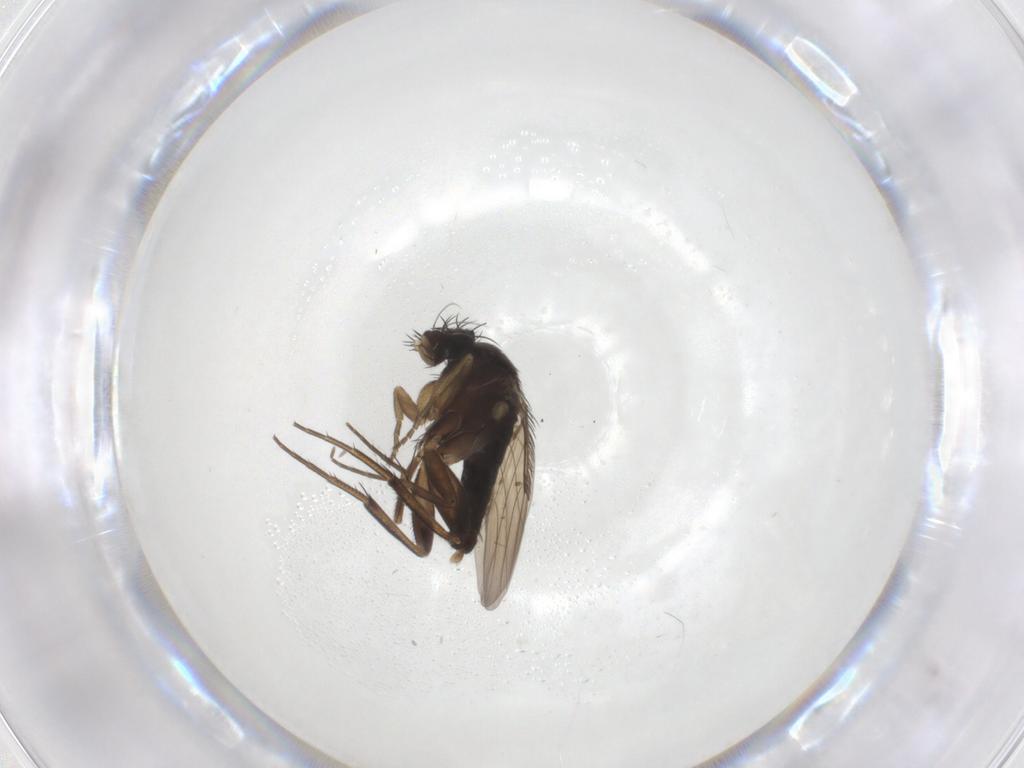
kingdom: Animalia
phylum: Arthropoda
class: Insecta
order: Diptera
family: Phoridae
